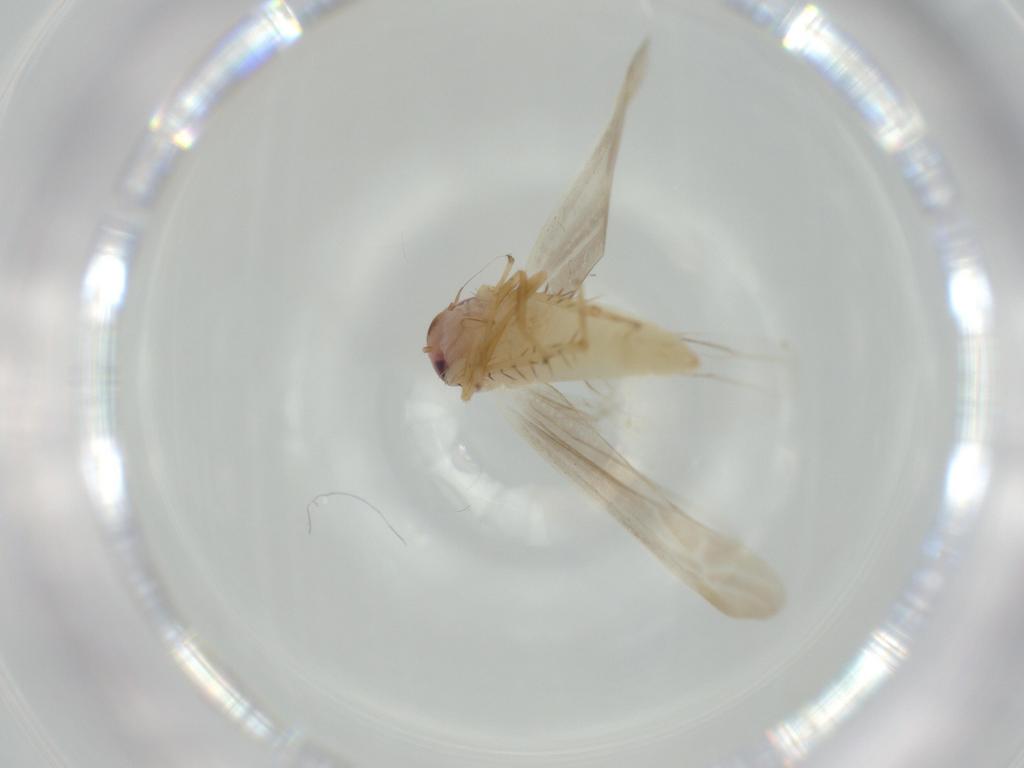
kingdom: Animalia
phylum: Arthropoda
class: Insecta
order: Hemiptera
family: Cicadellidae
